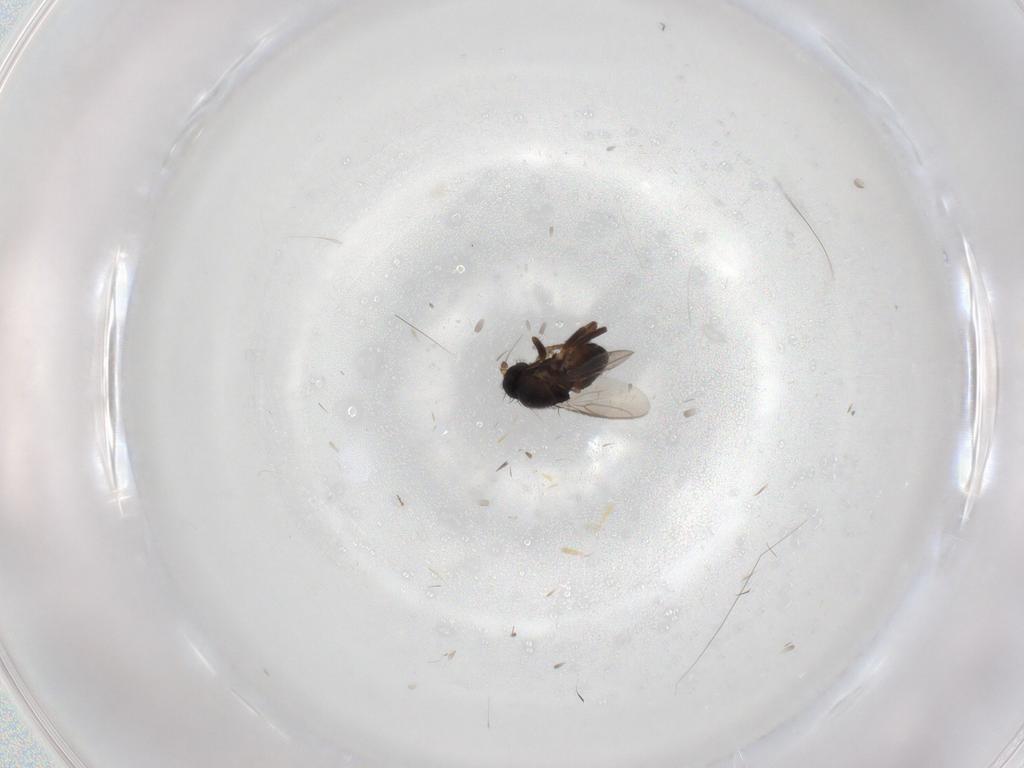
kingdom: Animalia
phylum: Arthropoda
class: Insecta
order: Diptera
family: Sphaeroceridae
